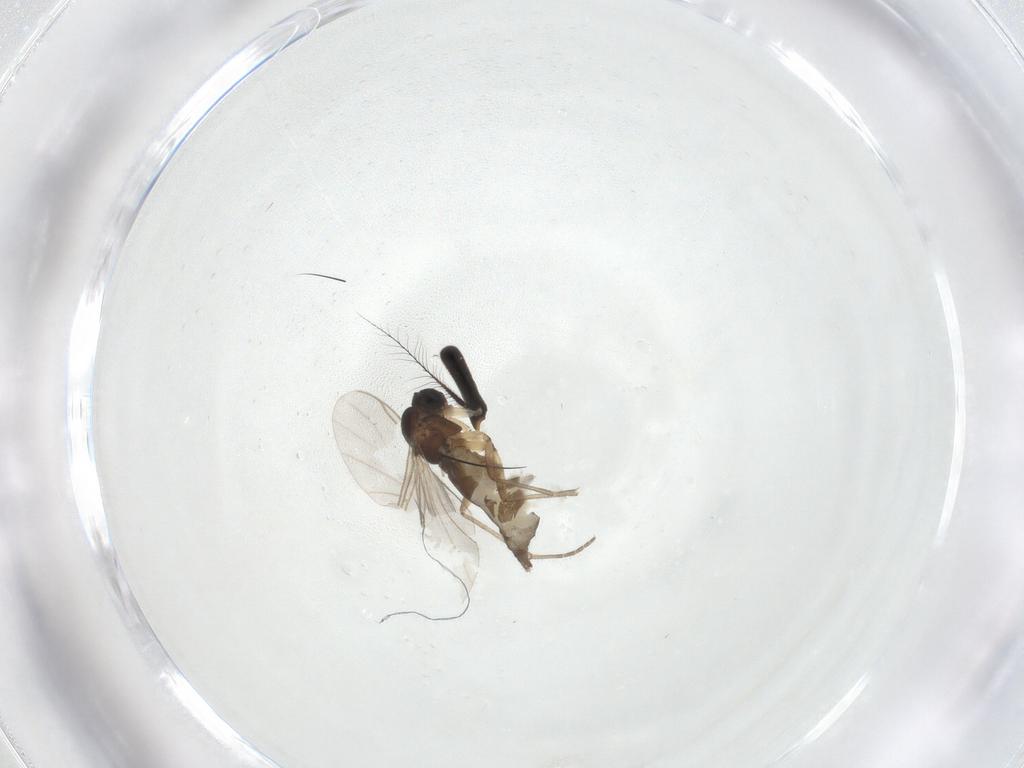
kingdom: Animalia
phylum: Arthropoda
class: Insecta
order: Diptera
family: Sciaridae
